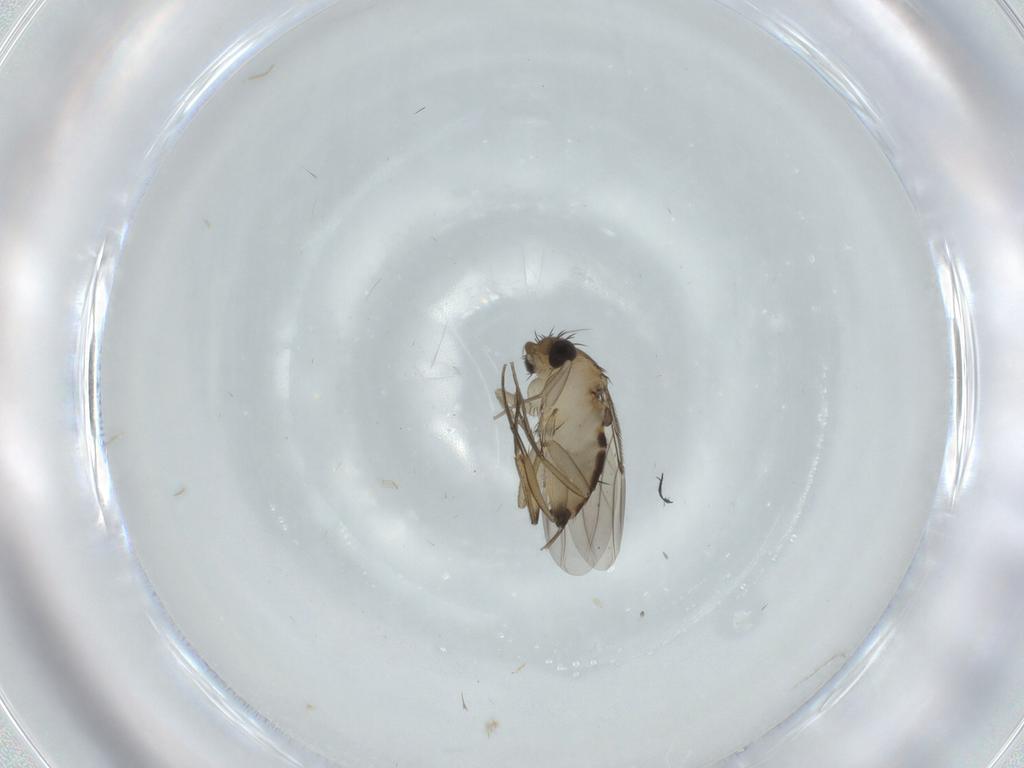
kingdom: Animalia
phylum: Arthropoda
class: Insecta
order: Diptera
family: Phoridae
